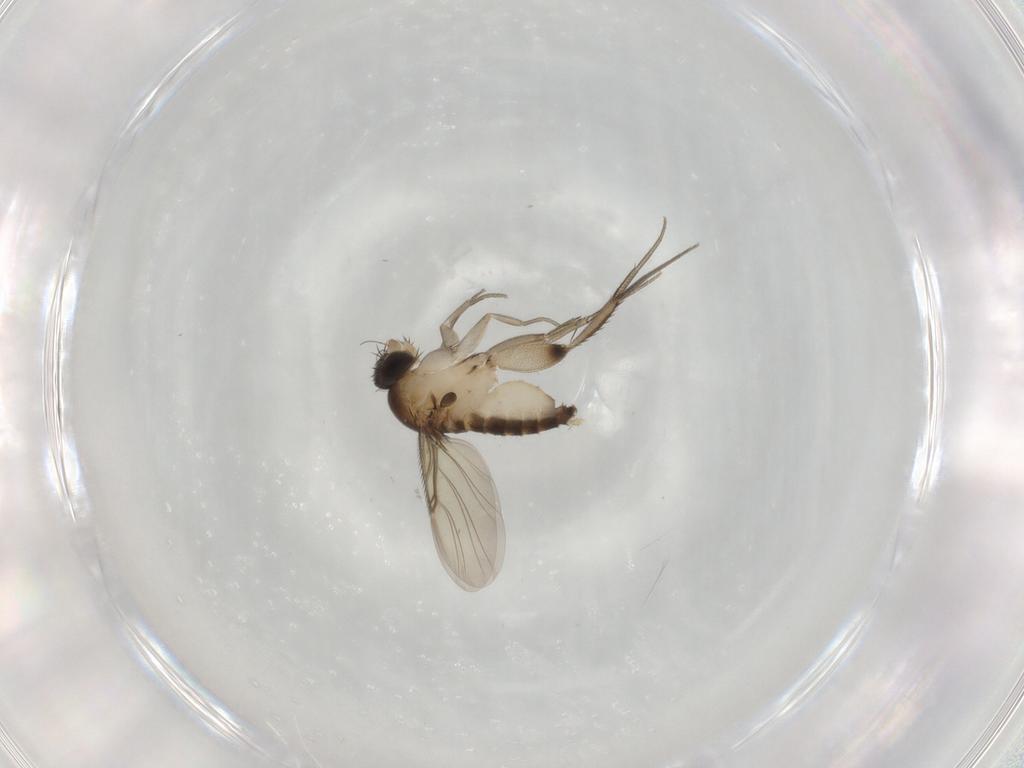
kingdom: Animalia
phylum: Arthropoda
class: Insecta
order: Diptera
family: Phoridae
